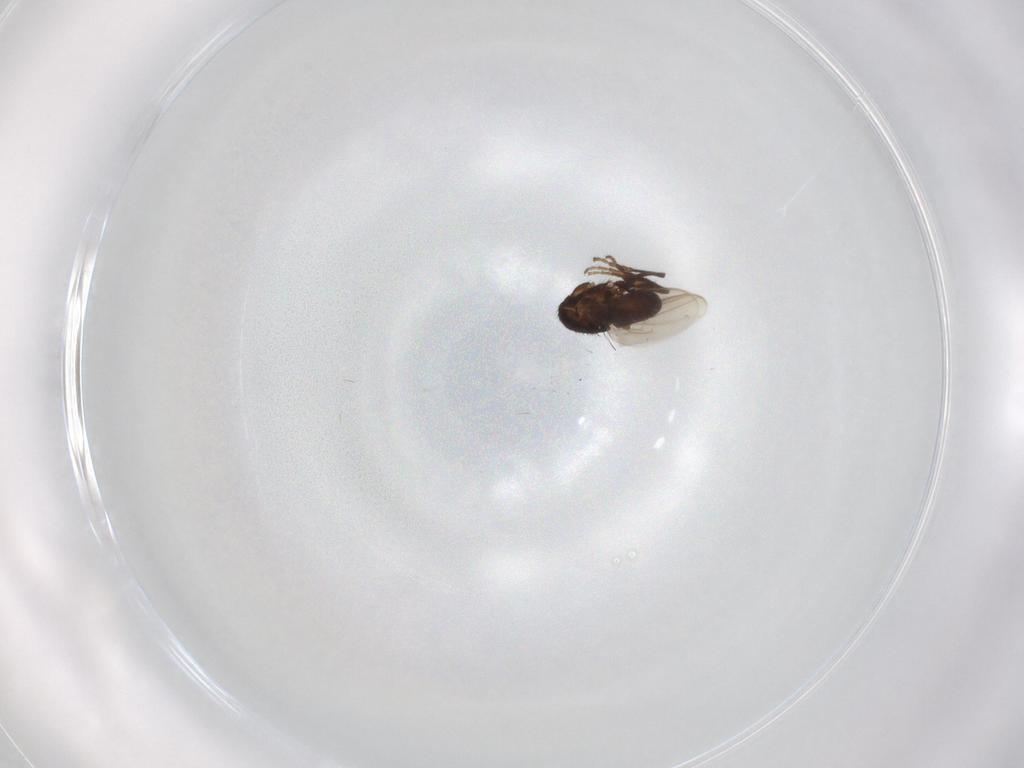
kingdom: Animalia
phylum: Arthropoda
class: Insecta
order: Diptera
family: Sphaeroceridae
